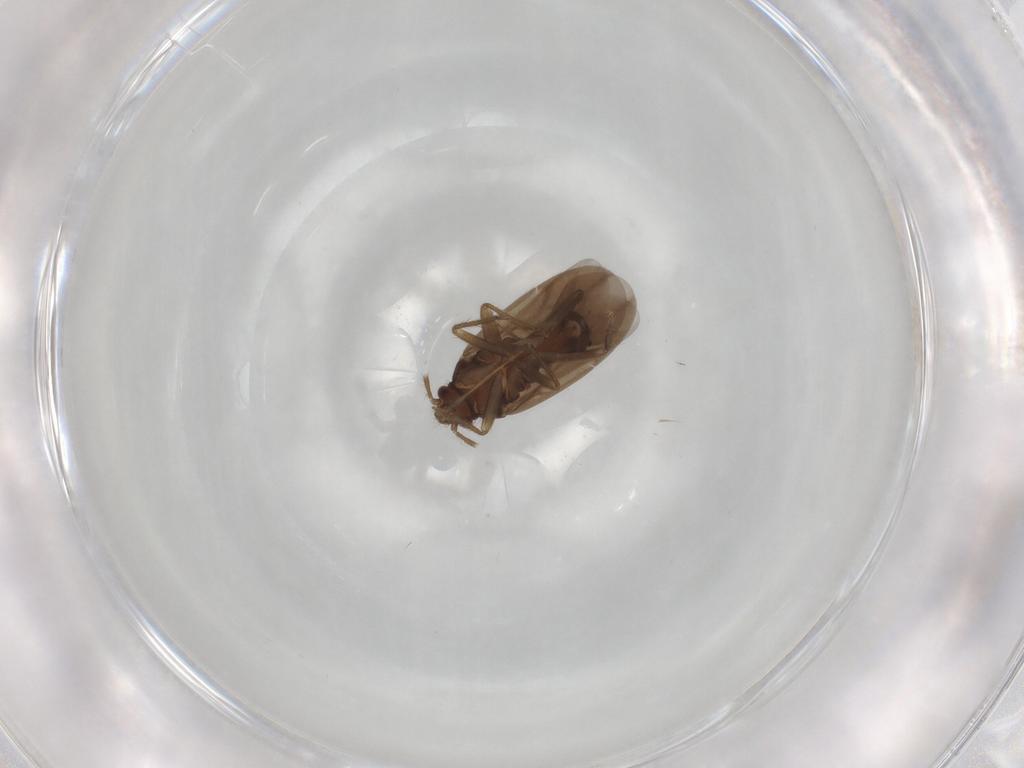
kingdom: Animalia
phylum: Arthropoda
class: Insecta
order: Hemiptera
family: Ceratocombidae
